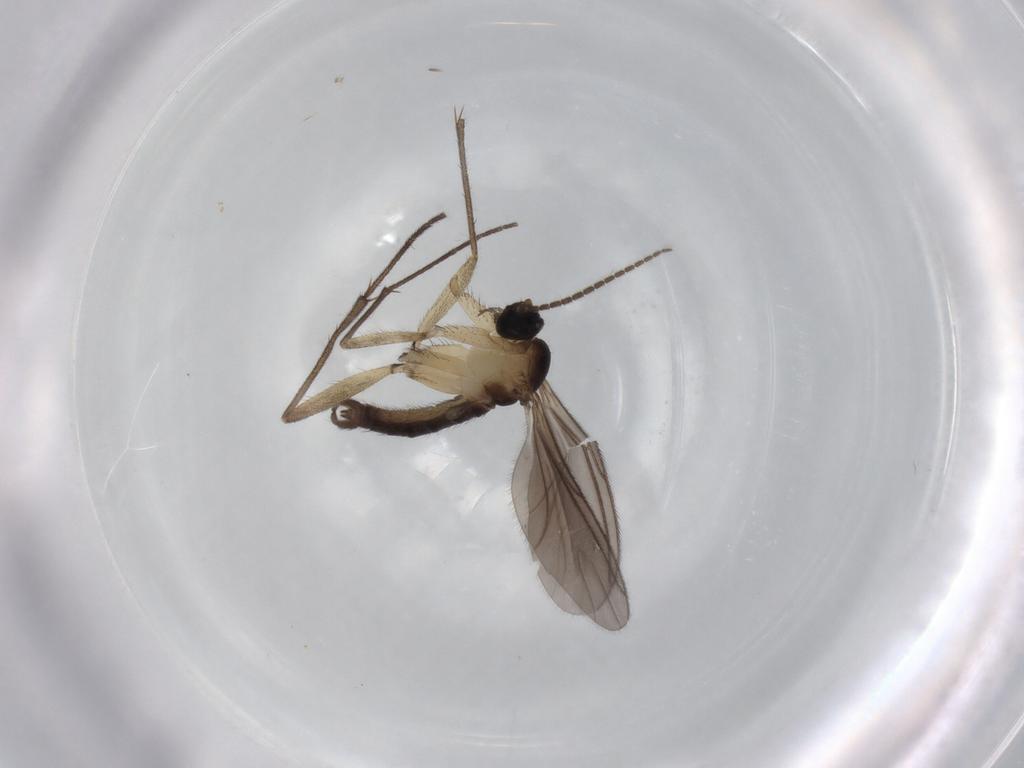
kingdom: Animalia
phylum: Arthropoda
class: Insecta
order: Diptera
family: Sciaridae
